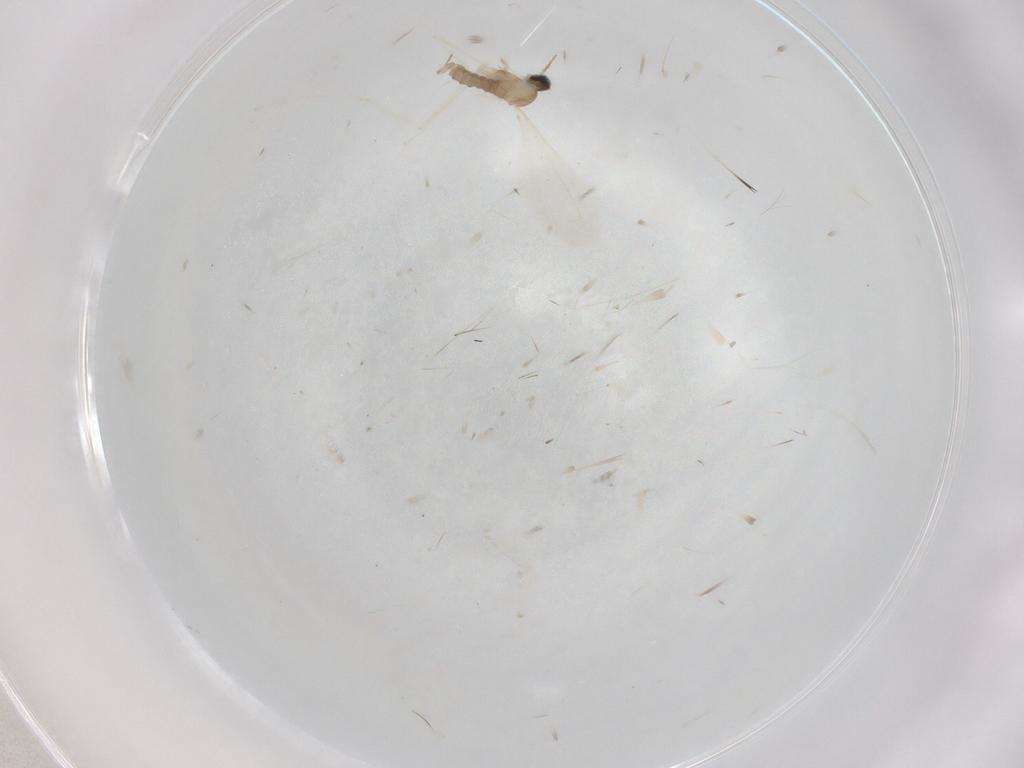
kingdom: Animalia
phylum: Arthropoda
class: Insecta
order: Diptera
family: Cecidomyiidae
